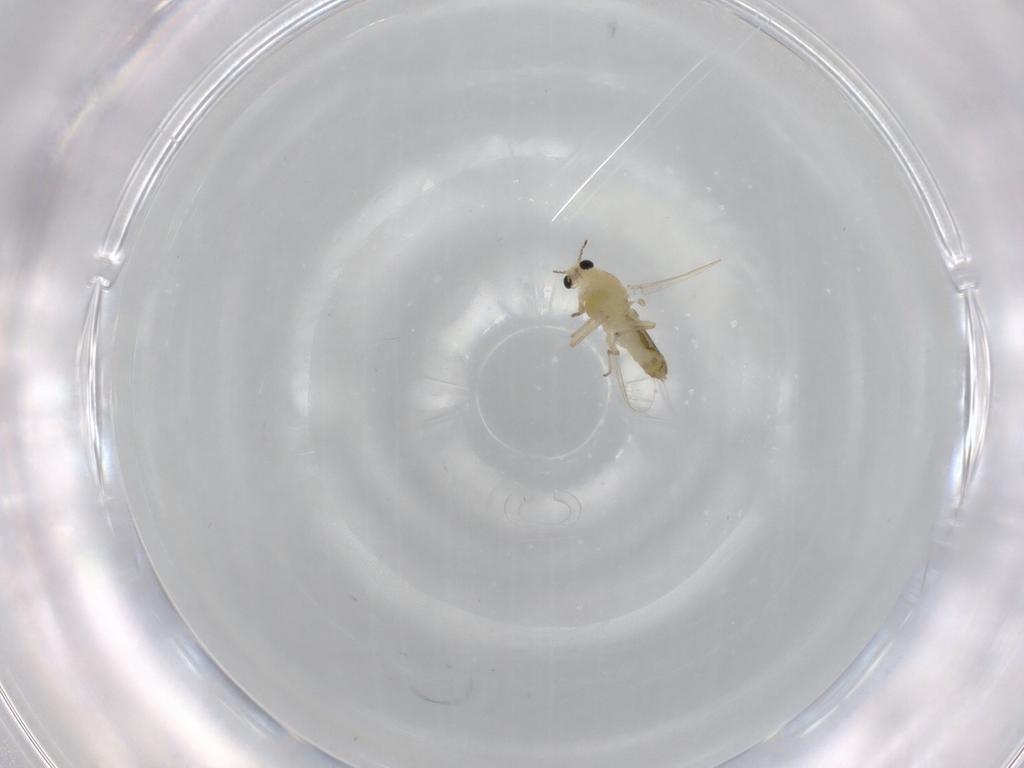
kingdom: Animalia
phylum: Arthropoda
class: Insecta
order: Diptera
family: Chironomidae
